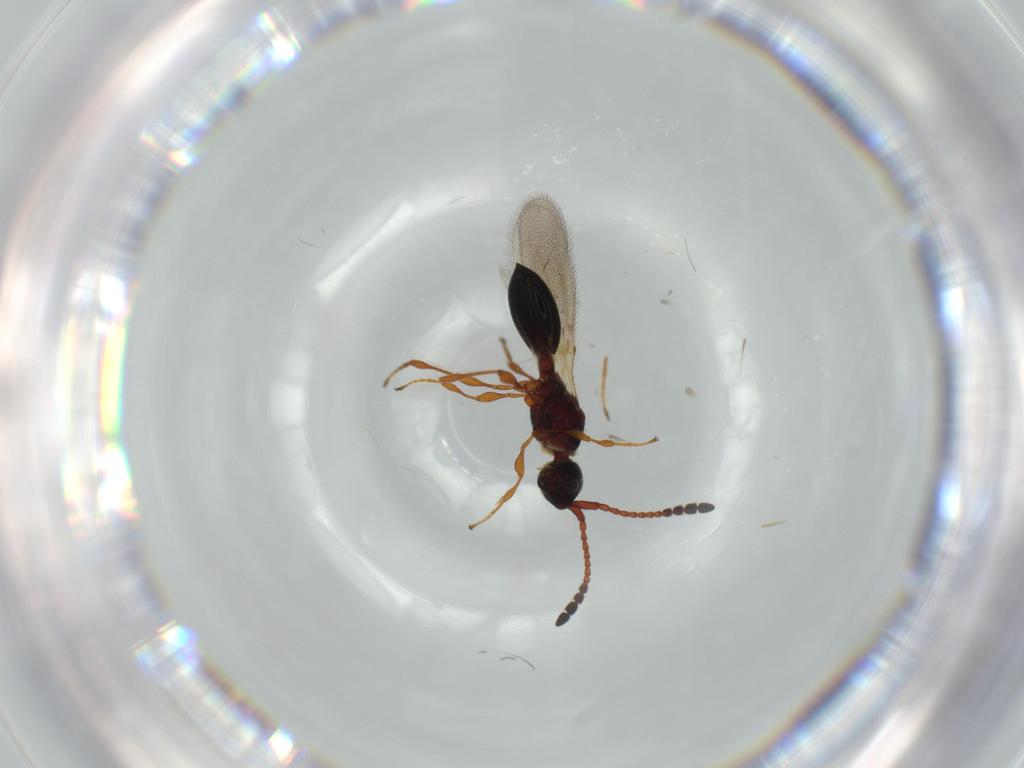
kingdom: Animalia
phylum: Arthropoda
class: Insecta
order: Hymenoptera
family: Diapriidae
